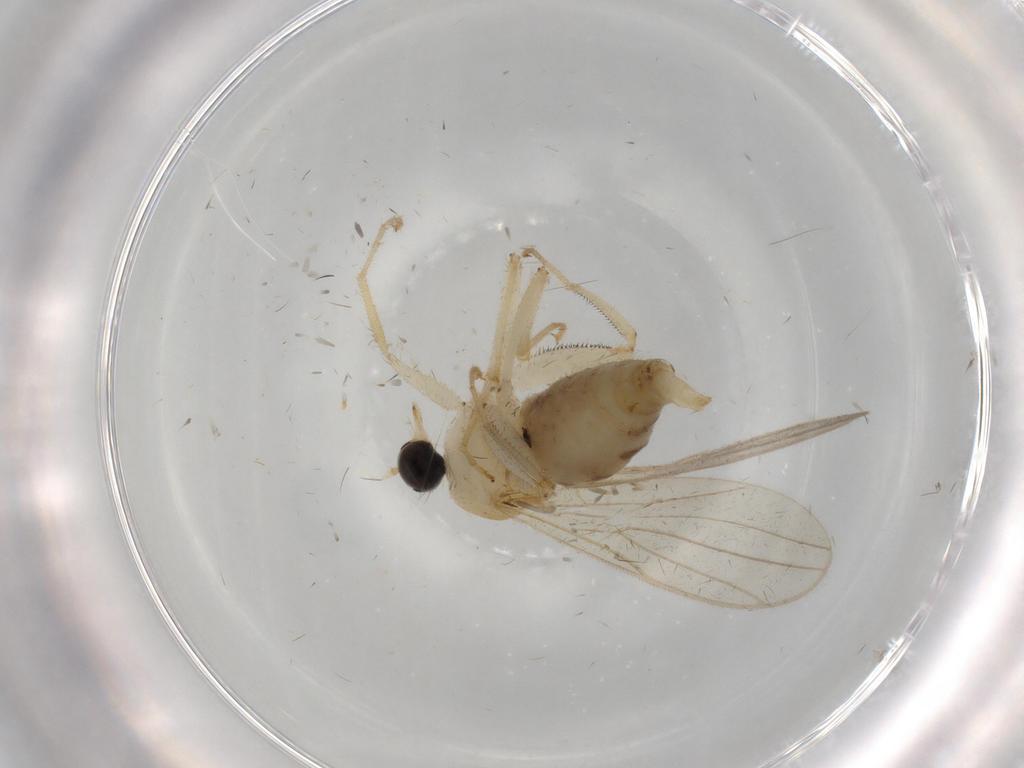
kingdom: Animalia
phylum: Arthropoda
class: Insecta
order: Diptera
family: Hybotidae
